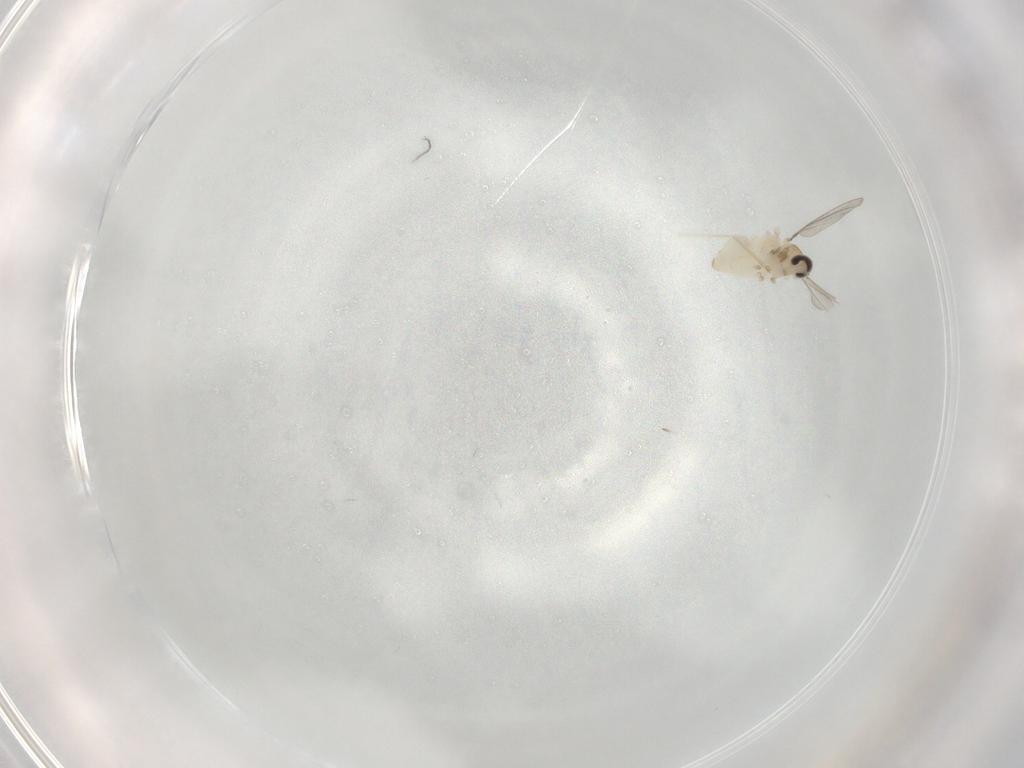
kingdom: Animalia
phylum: Arthropoda
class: Insecta
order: Diptera
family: Cecidomyiidae
